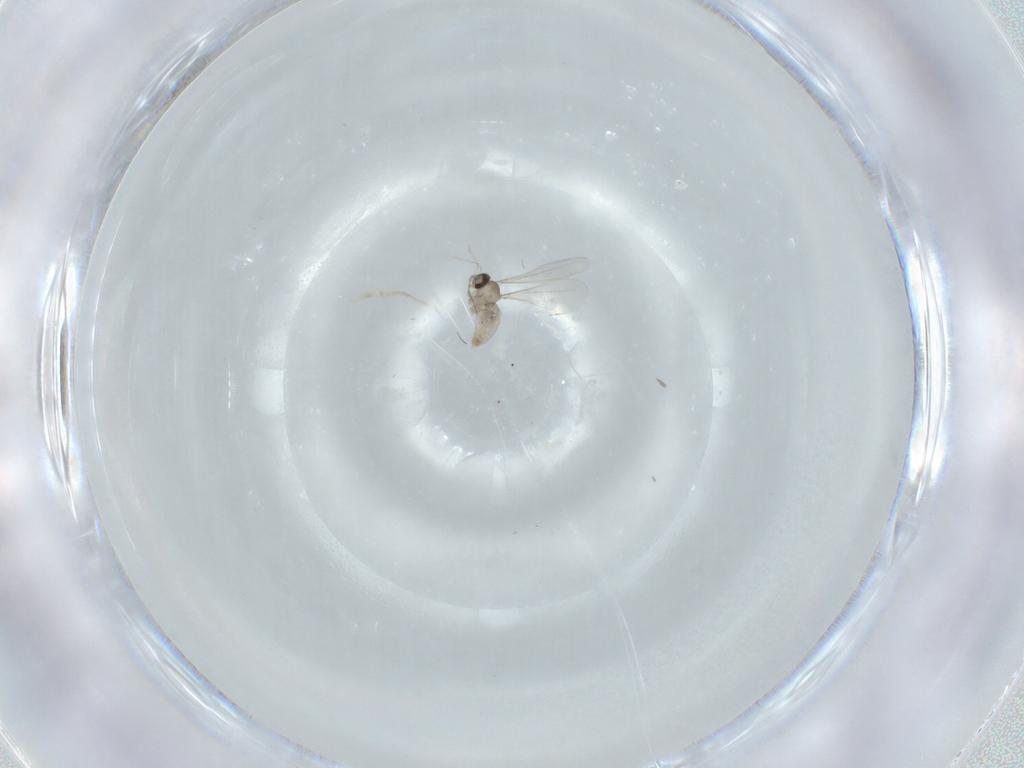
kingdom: Animalia
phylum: Arthropoda
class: Insecta
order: Diptera
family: Cecidomyiidae
